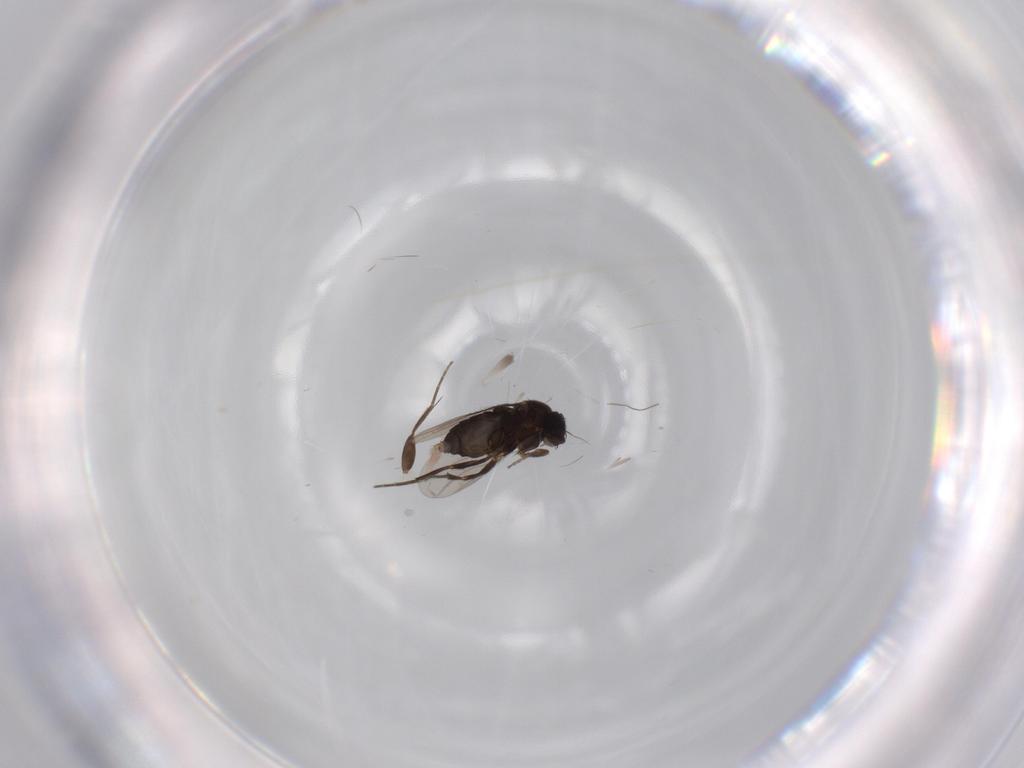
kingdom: Animalia
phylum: Arthropoda
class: Insecta
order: Diptera
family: Phoridae
